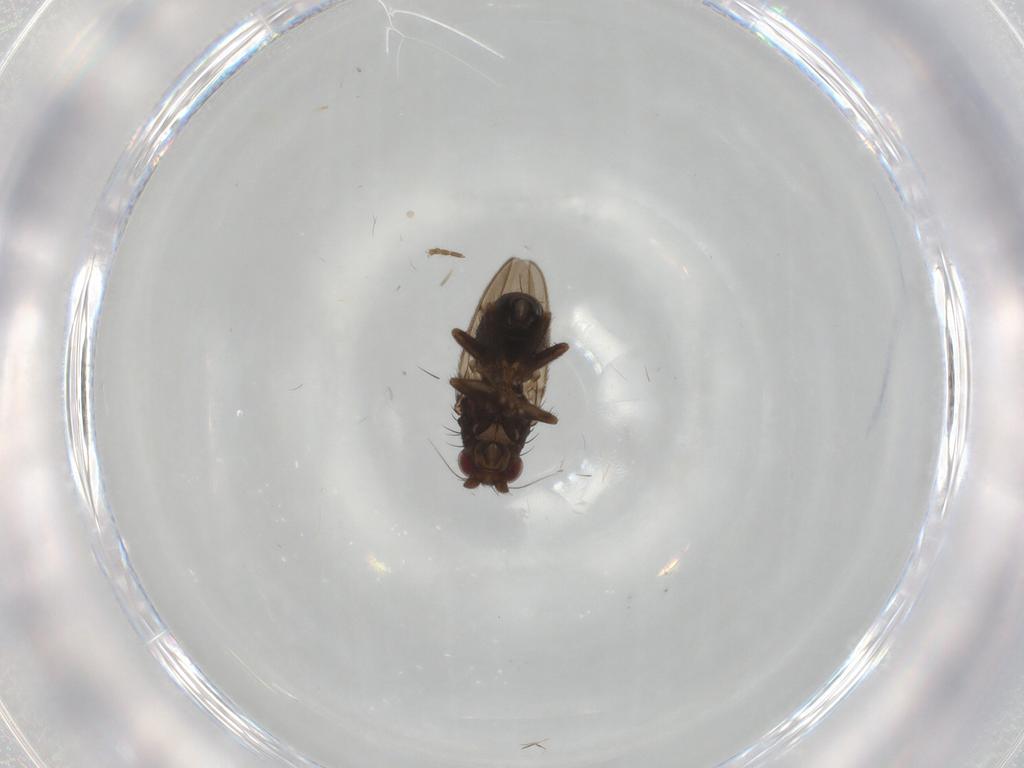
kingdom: Animalia
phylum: Arthropoda
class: Insecta
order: Diptera
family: Sphaeroceridae
